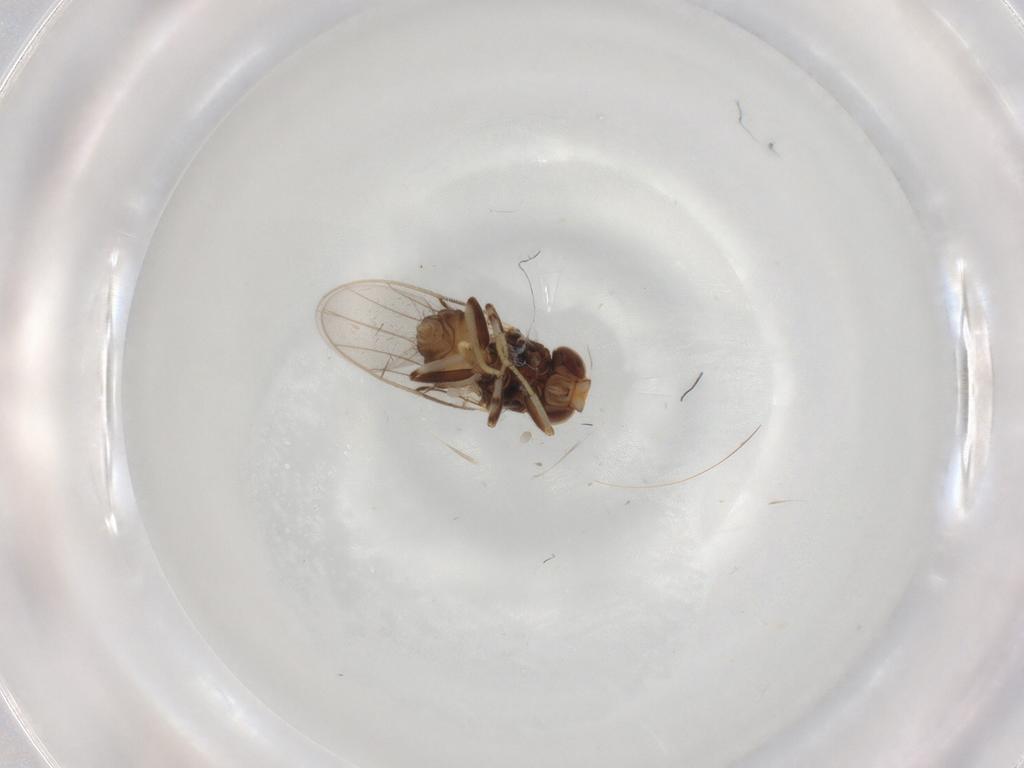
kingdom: Animalia
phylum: Arthropoda
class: Insecta
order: Diptera
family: Chloropidae
